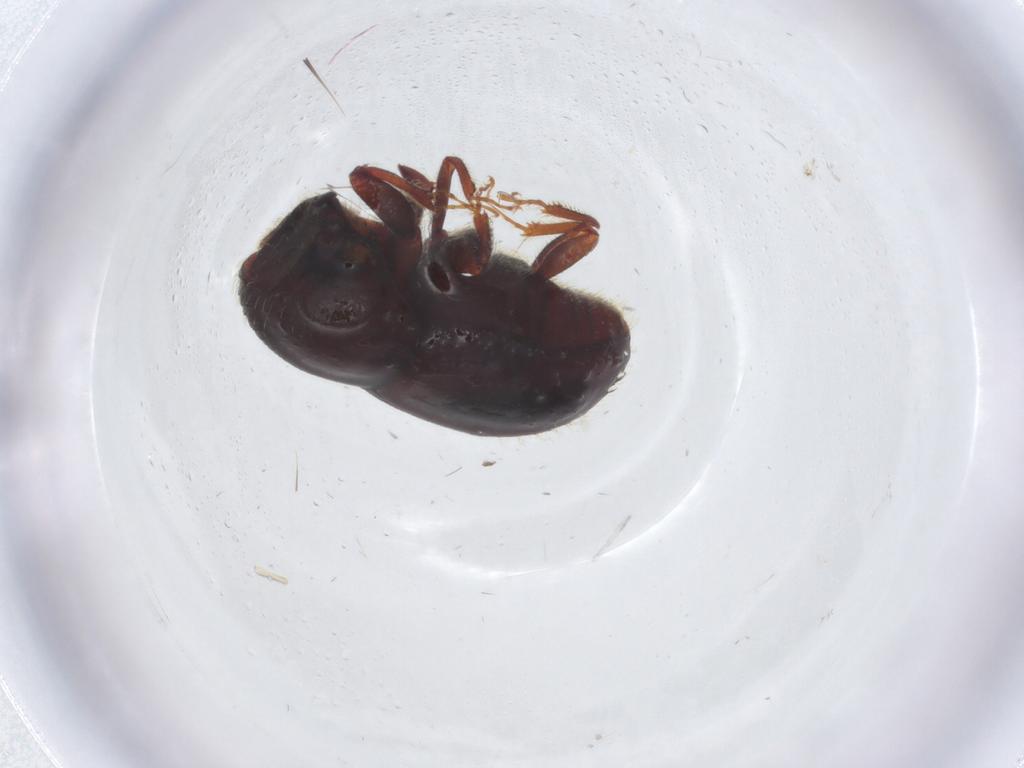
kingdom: Animalia
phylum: Arthropoda
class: Insecta
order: Coleoptera
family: Curculionidae
